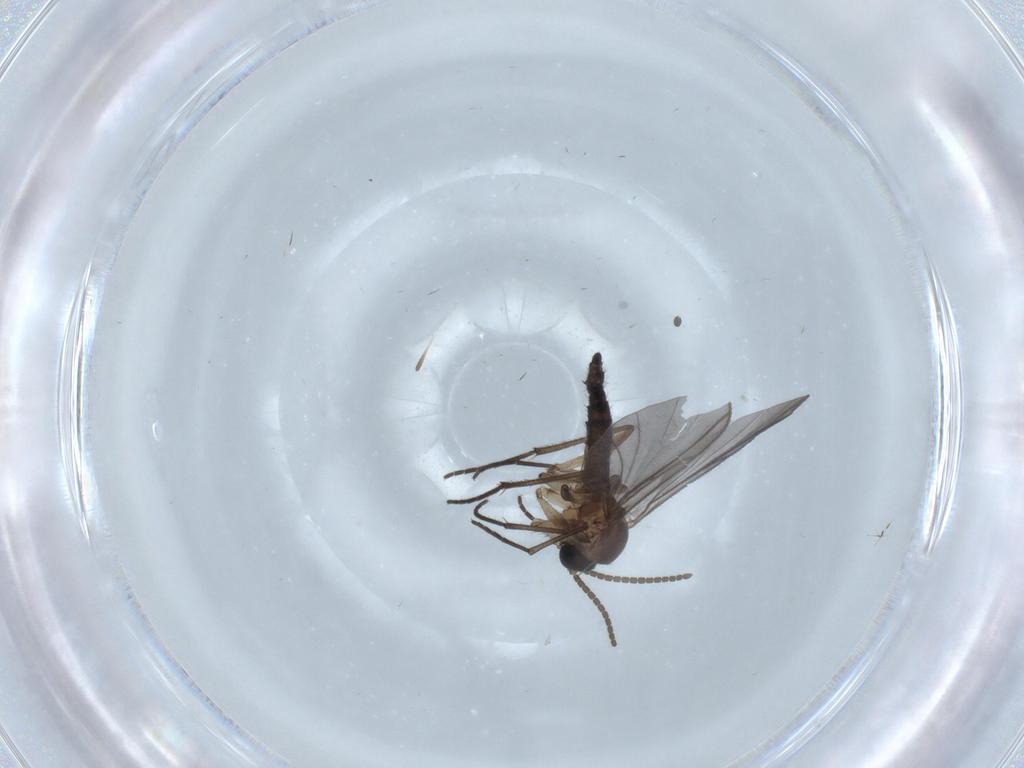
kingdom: Animalia
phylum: Arthropoda
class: Insecta
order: Diptera
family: Sciaridae
